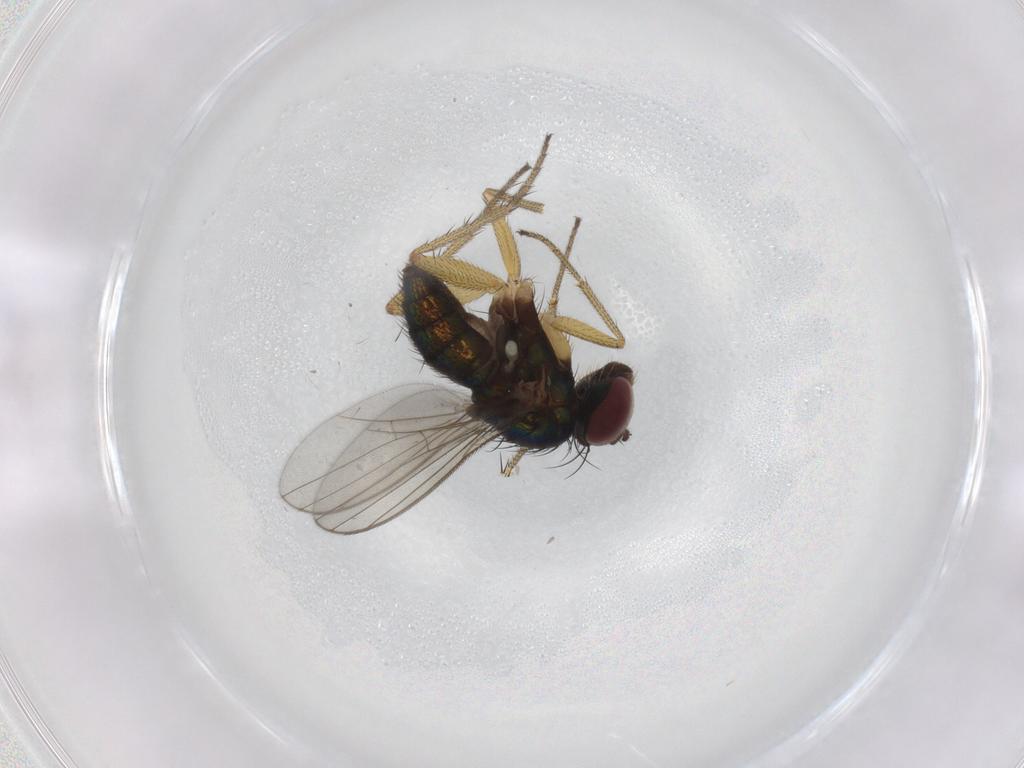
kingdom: Animalia
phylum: Arthropoda
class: Insecta
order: Diptera
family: Dolichopodidae
